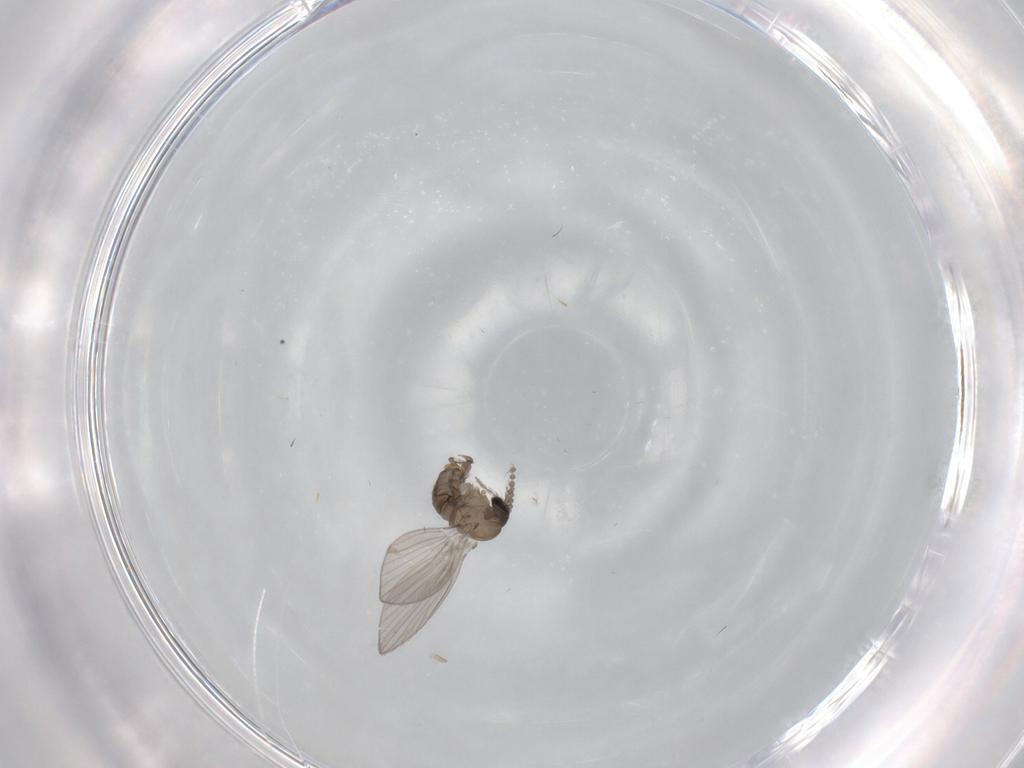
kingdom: Animalia
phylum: Arthropoda
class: Insecta
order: Diptera
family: Psychodidae
